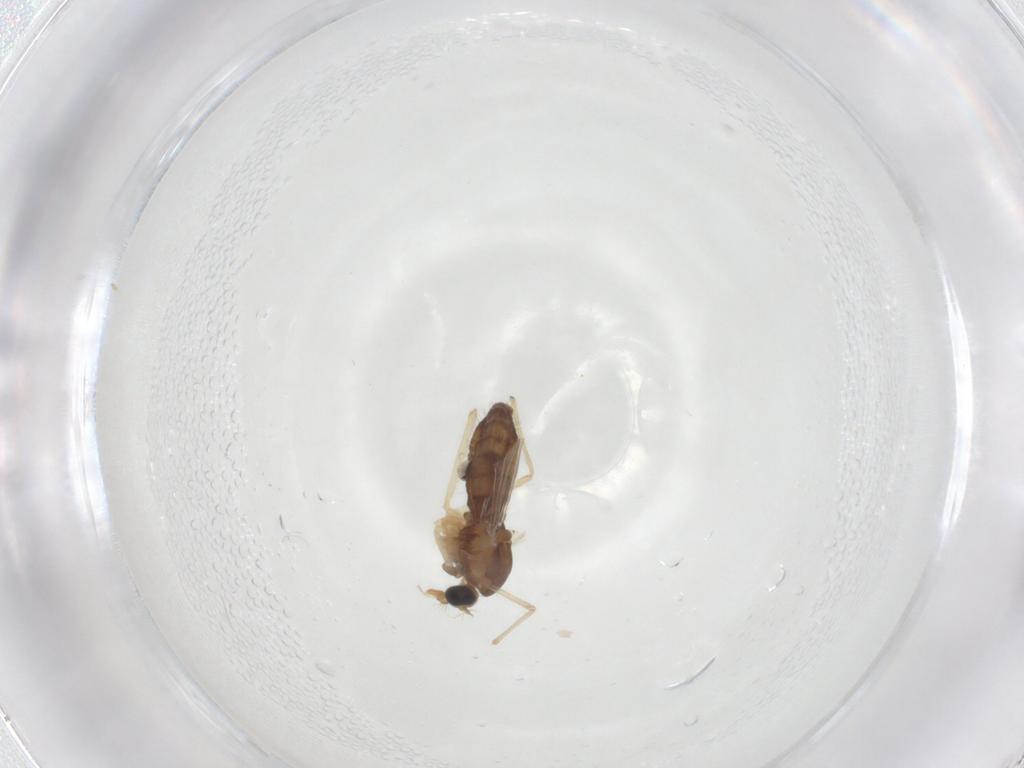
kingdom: Animalia
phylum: Arthropoda
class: Insecta
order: Diptera
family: Chironomidae
